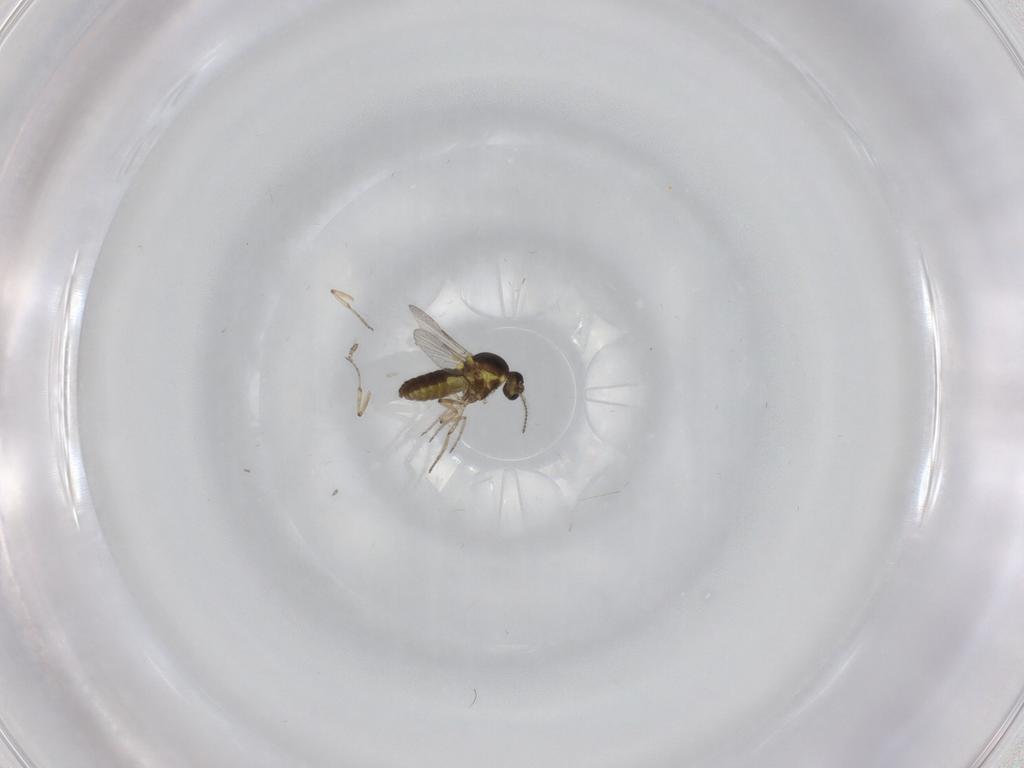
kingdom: Animalia
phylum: Arthropoda
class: Insecta
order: Diptera
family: Ceratopogonidae
